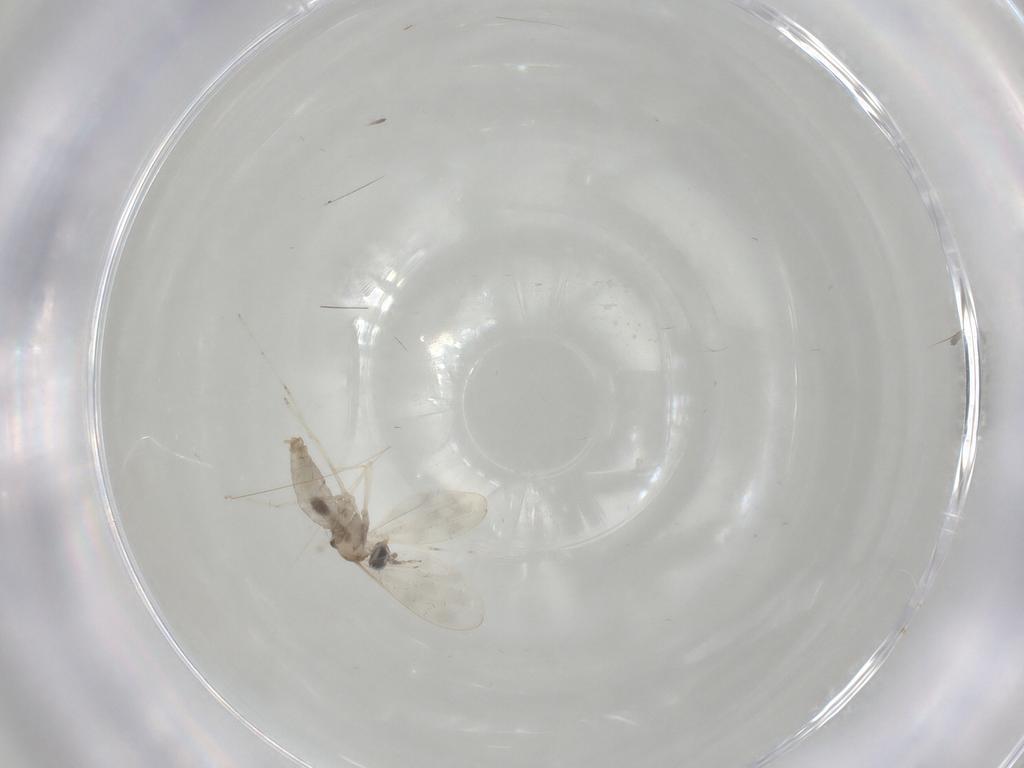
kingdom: Animalia
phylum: Arthropoda
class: Insecta
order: Diptera
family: Cecidomyiidae
